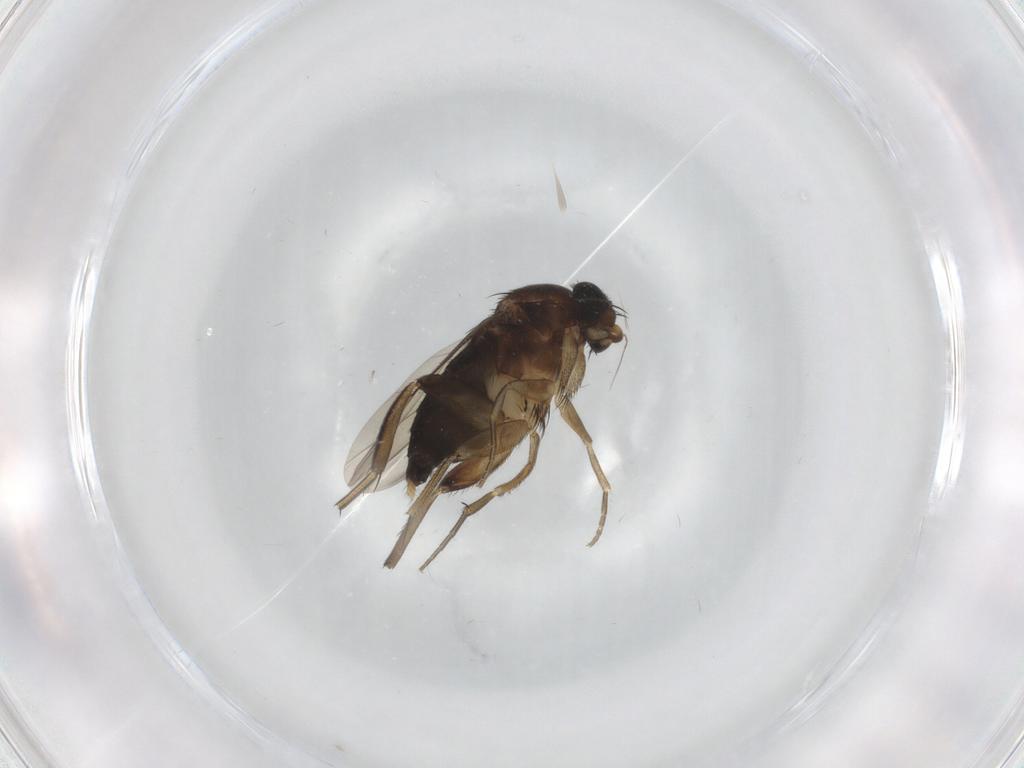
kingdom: Animalia
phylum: Arthropoda
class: Insecta
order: Diptera
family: Phoridae
